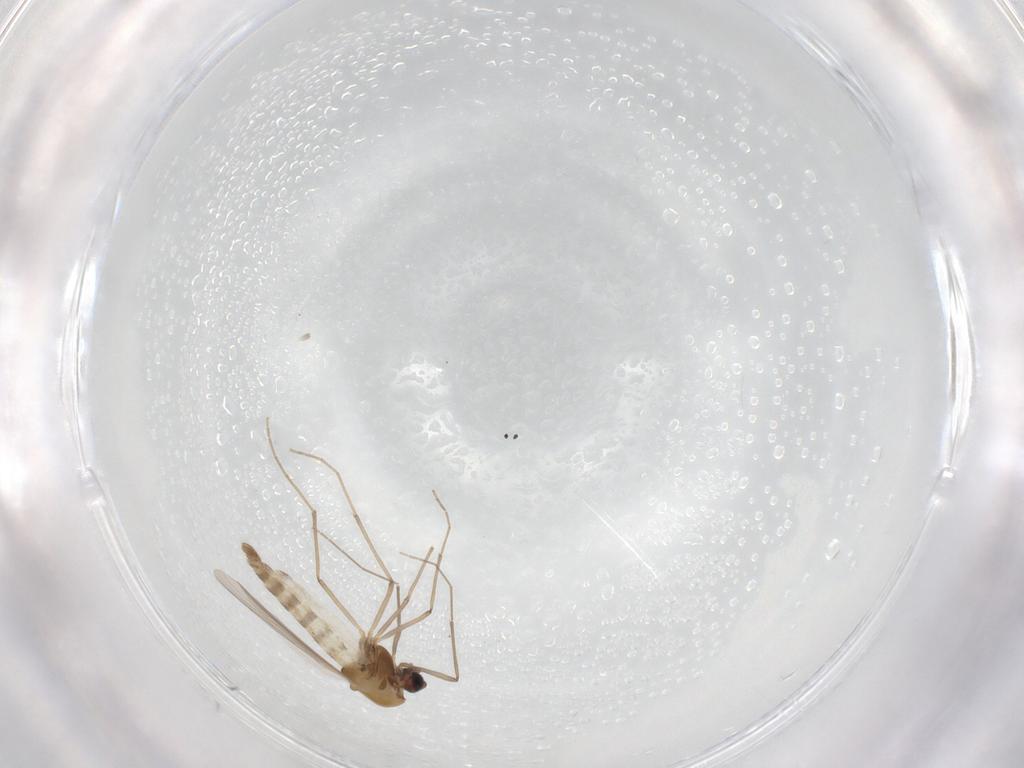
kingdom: Animalia
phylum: Arthropoda
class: Insecta
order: Diptera
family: Chironomidae
